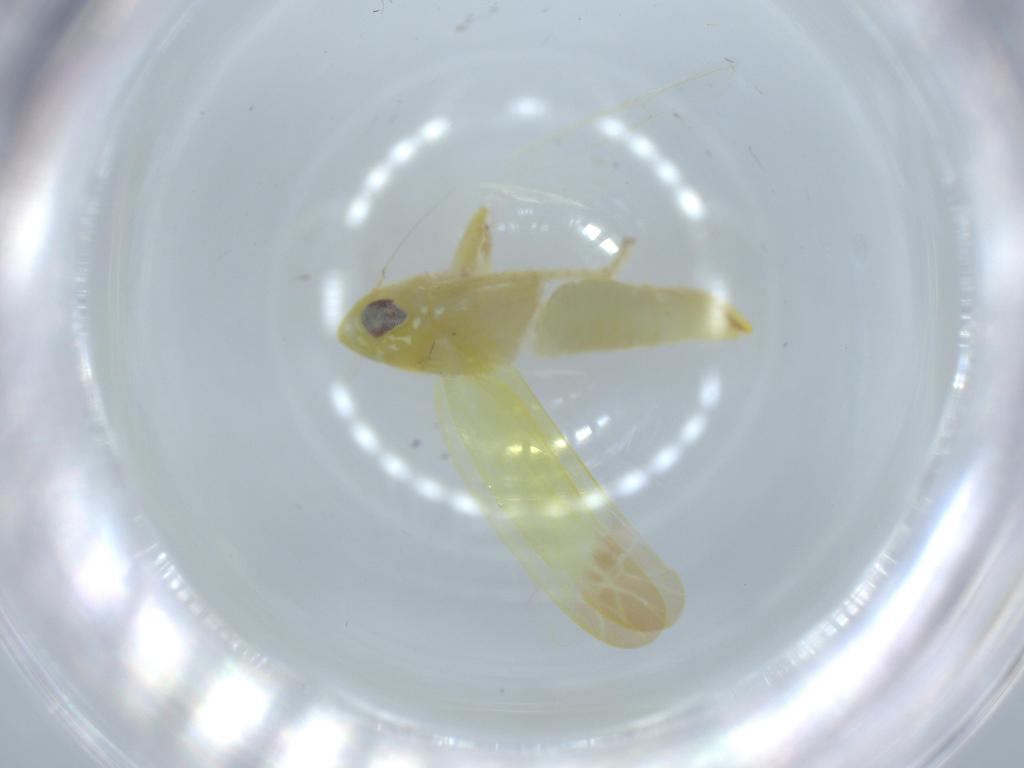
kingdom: Animalia
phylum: Arthropoda
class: Insecta
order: Hemiptera
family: Cicadellidae
